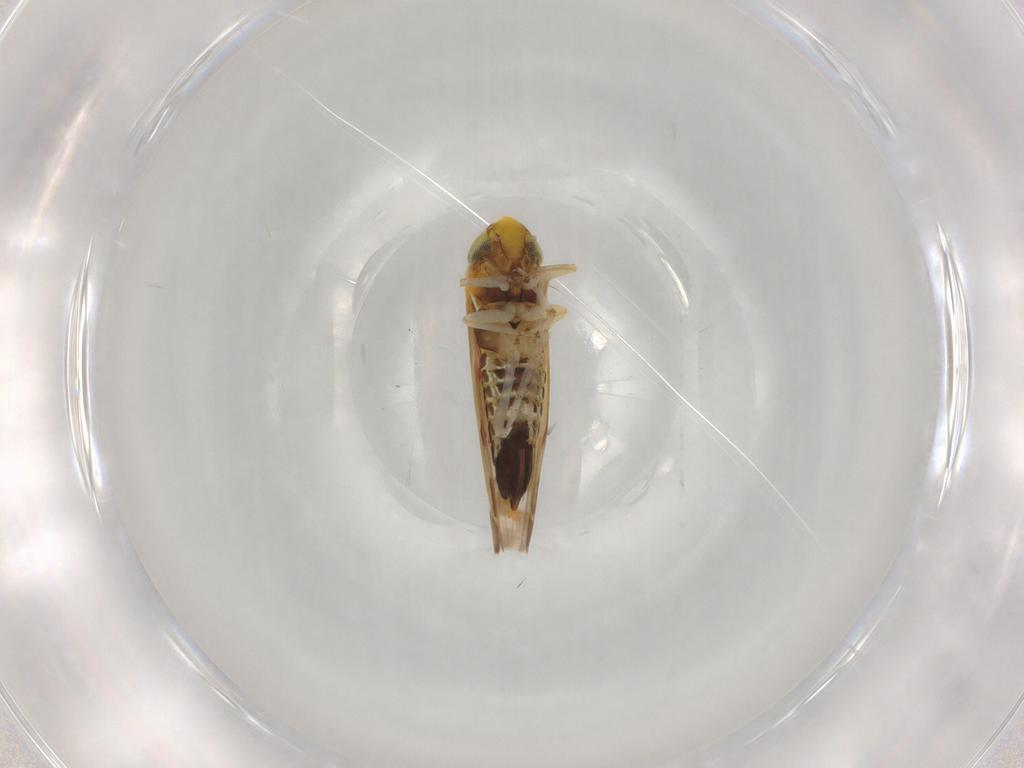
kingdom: Animalia
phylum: Arthropoda
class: Insecta
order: Hemiptera
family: Cicadellidae
